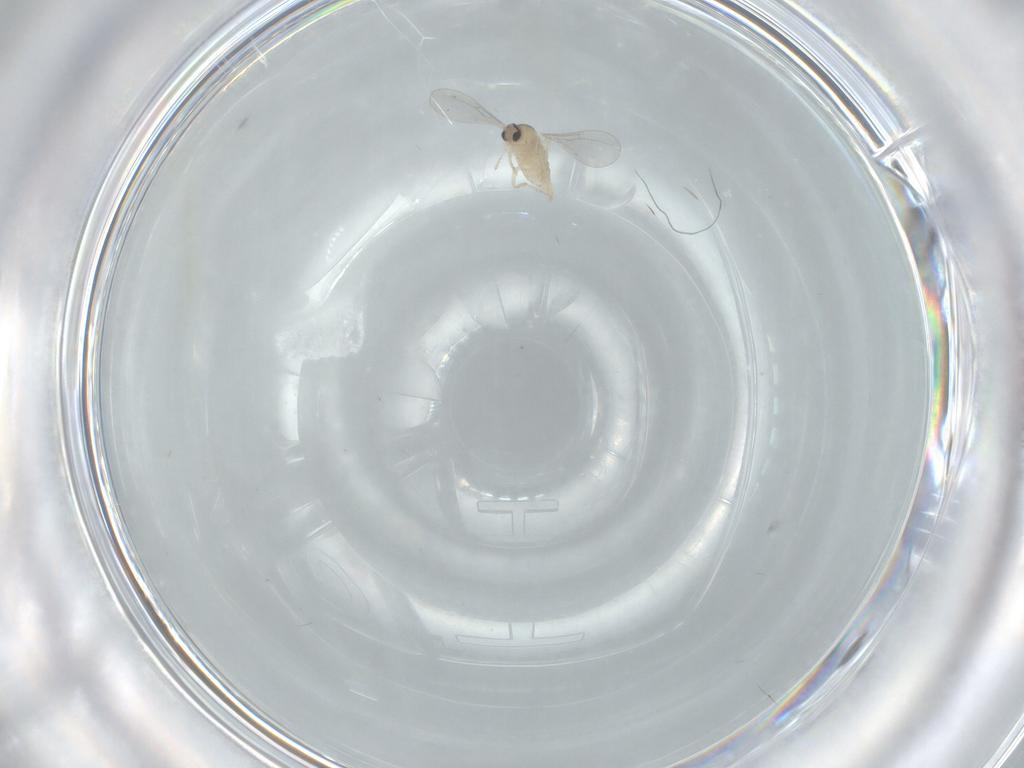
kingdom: Animalia
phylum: Arthropoda
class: Insecta
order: Diptera
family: Cecidomyiidae
